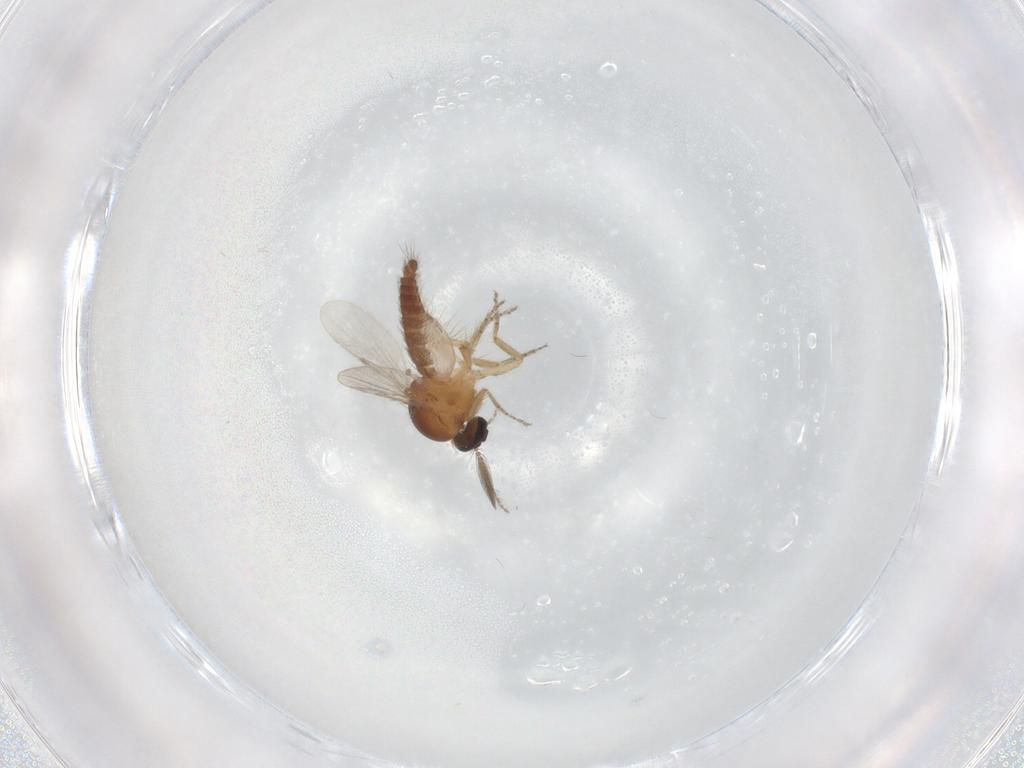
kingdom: Animalia
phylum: Arthropoda
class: Insecta
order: Diptera
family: Ceratopogonidae
